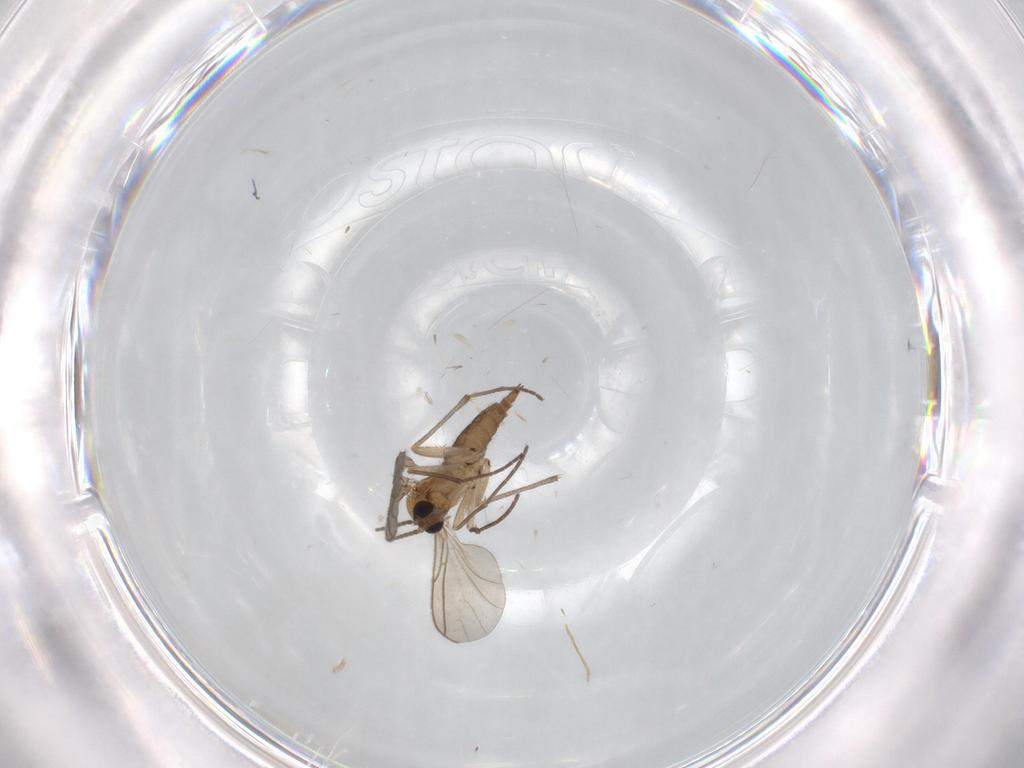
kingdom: Animalia
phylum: Arthropoda
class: Insecta
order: Diptera
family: Sciaridae
